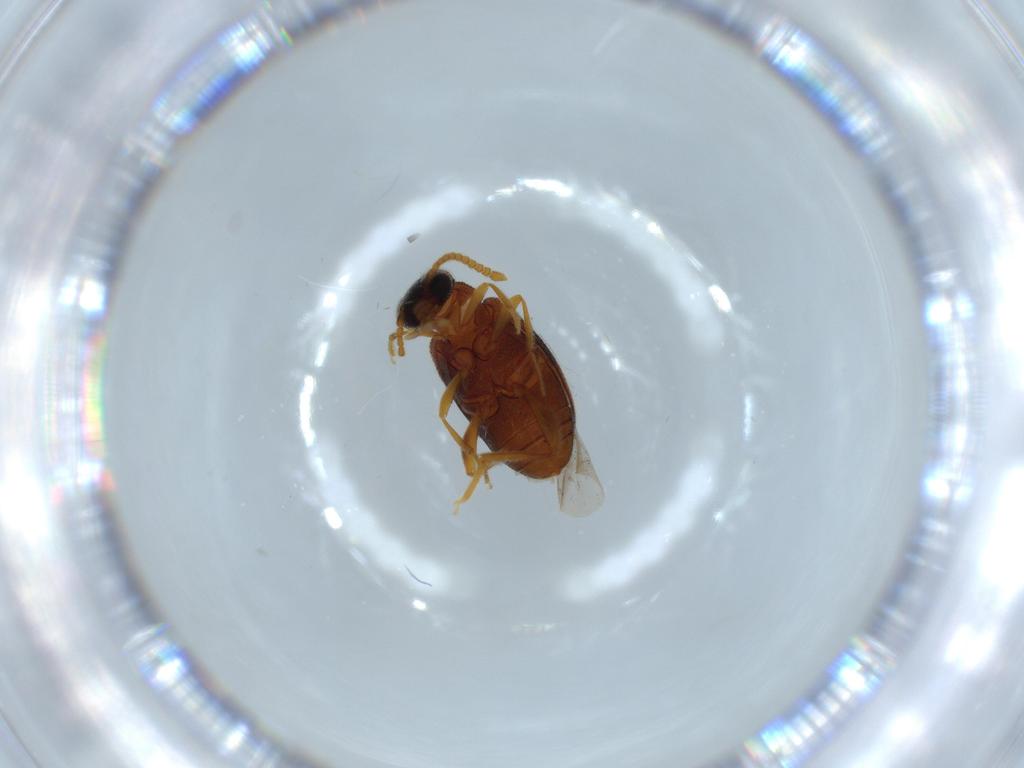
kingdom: Animalia
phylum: Arthropoda
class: Insecta
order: Coleoptera
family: Aderidae
